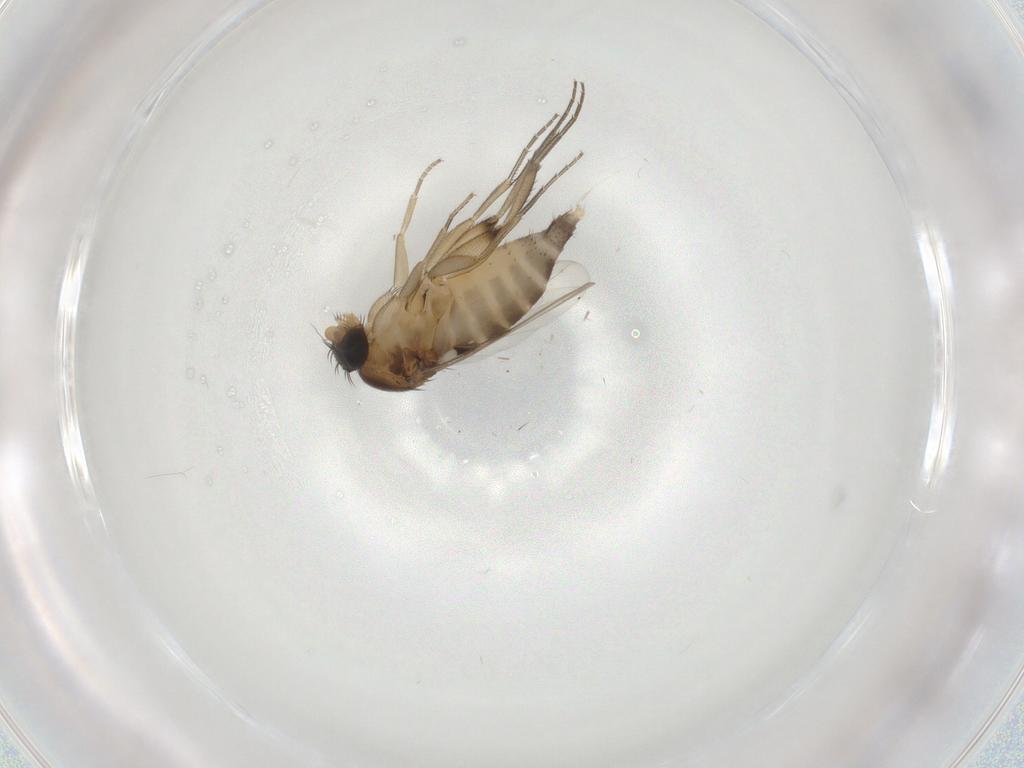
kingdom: Animalia
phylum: Arthropoda
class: Insecta
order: Diptera
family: Phoridae
